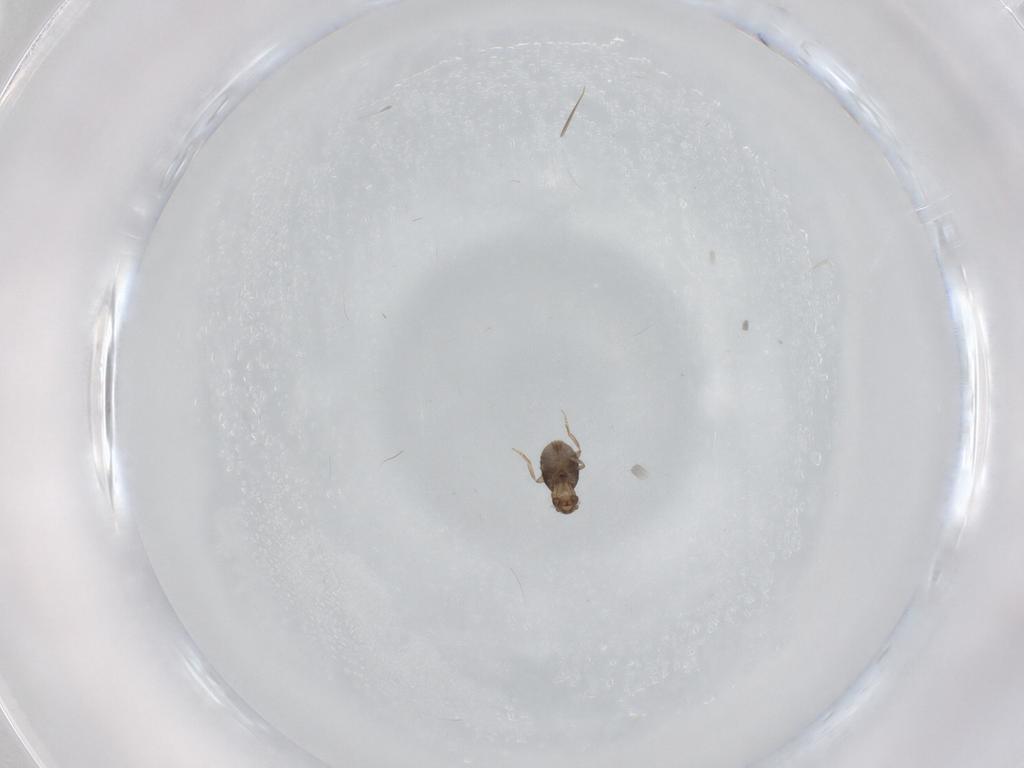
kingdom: Animalia
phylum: Arthropoda
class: Insecta
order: Diptera
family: Phoridae
